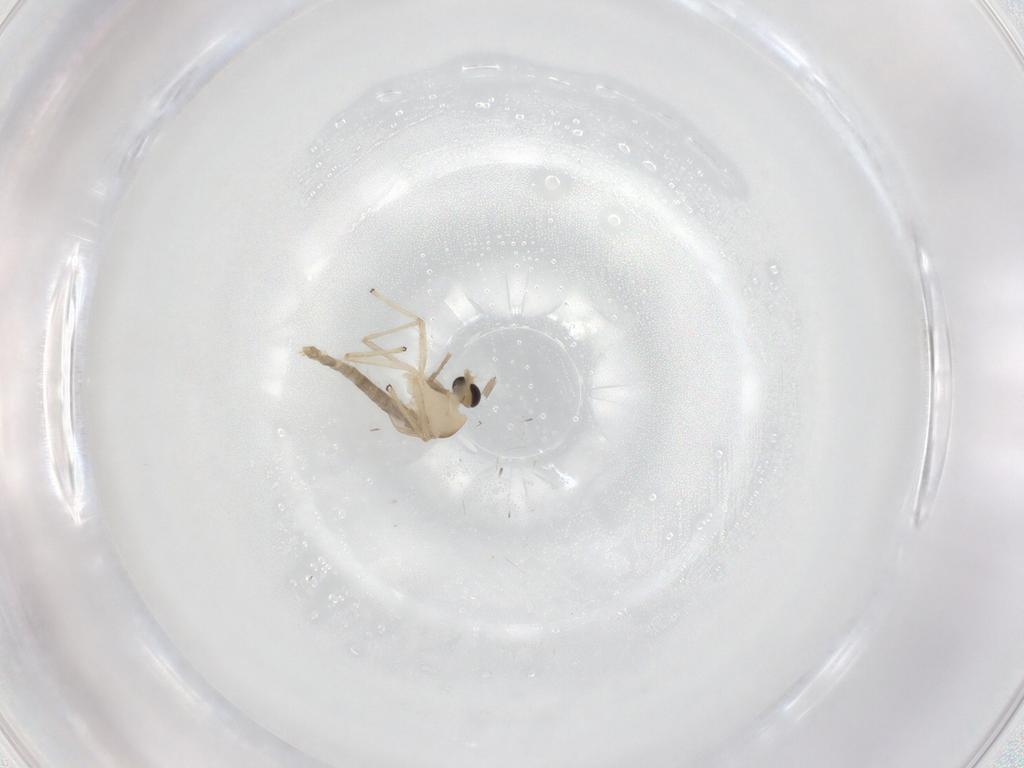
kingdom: Animalia
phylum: Arthropoda
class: Insecta
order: Diptera
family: Chironomidae
